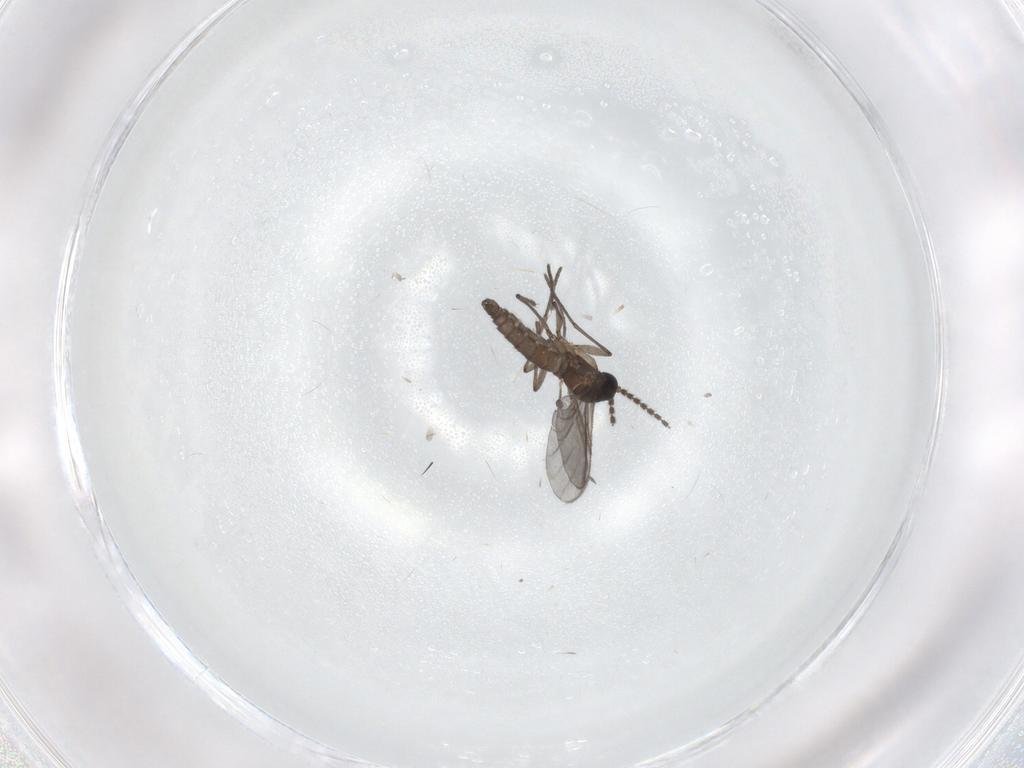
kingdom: Animalia
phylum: Arthropoda
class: Insecta
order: Diptera
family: Chironomidae
